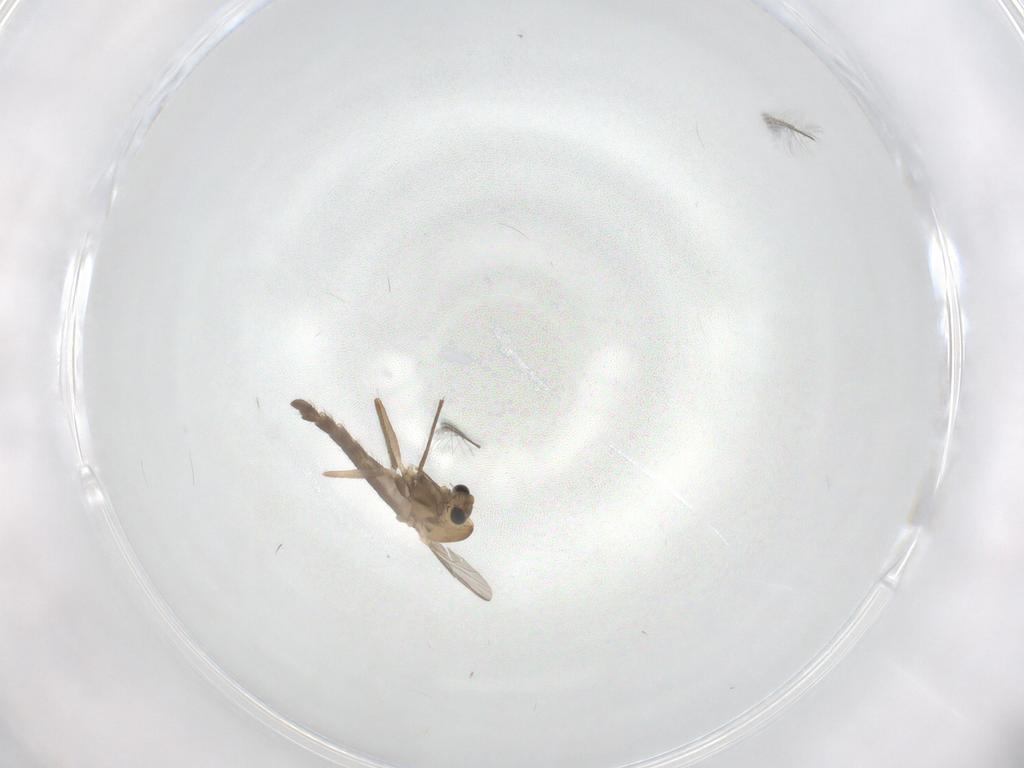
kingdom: Animalia
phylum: Arthropoda
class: Insecta
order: Diptera
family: Chironomidae
